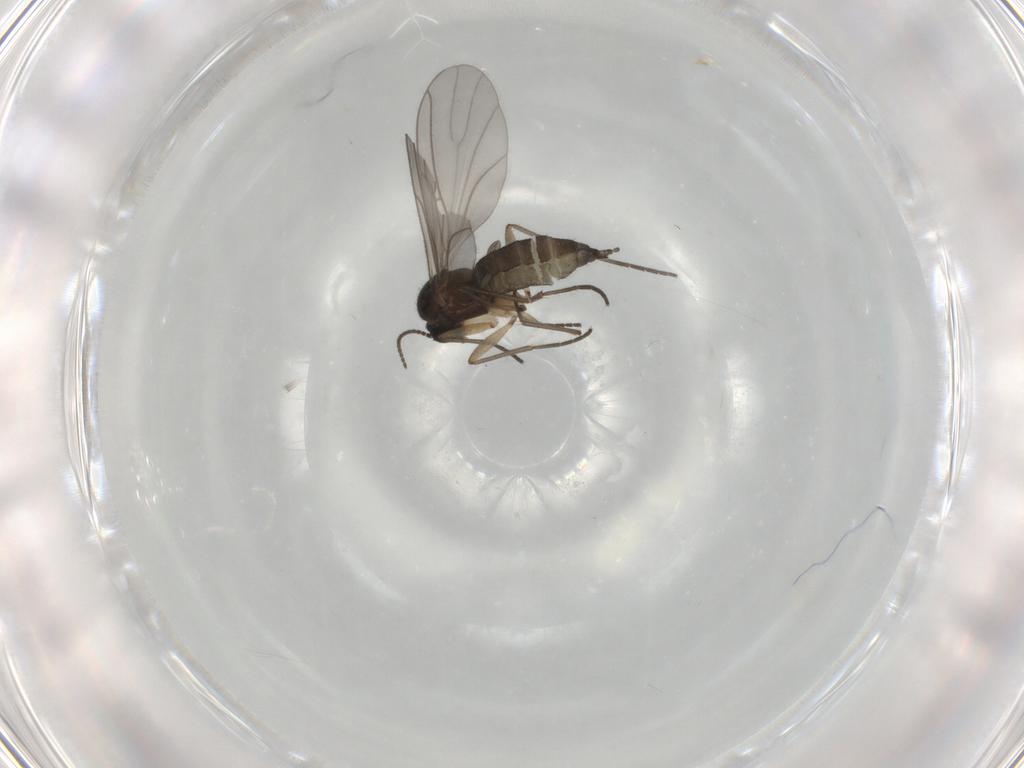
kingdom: Animalia
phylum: Arthropoda
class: Insecta
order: Diptera
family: Sciaridae
